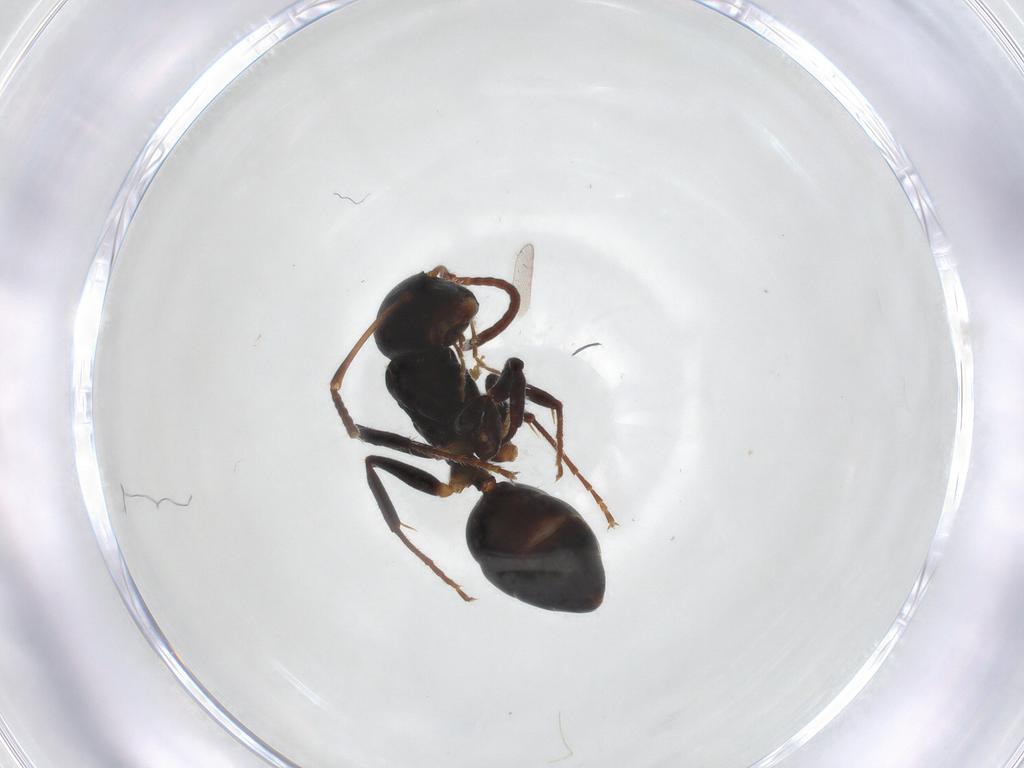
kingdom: Animalia
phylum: Arthropoda
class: Insecta
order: Hymenoptera
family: Formicidae
